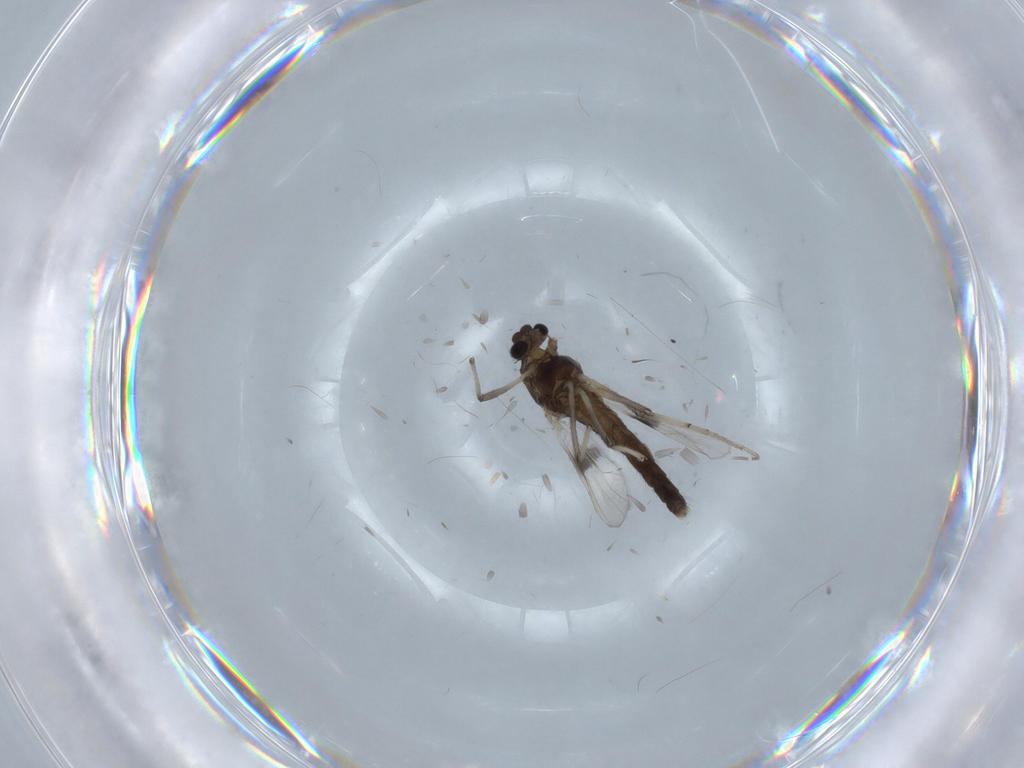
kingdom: Animalia
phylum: Arthropoda
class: Insecta
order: Diptera
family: Chironomidae
